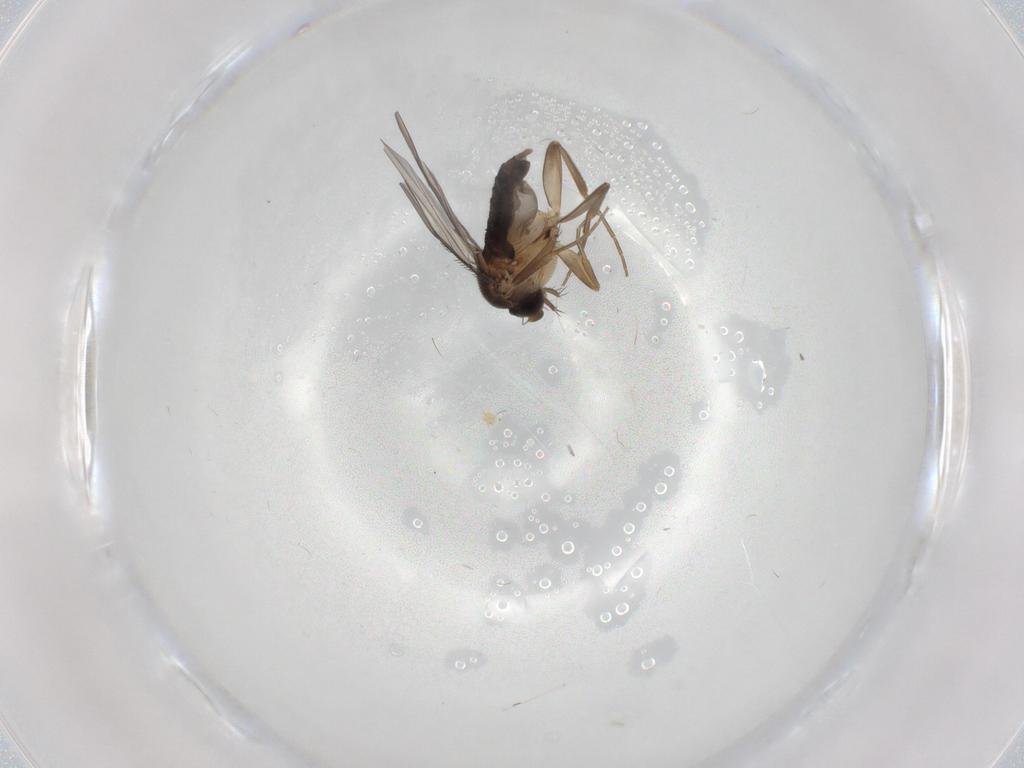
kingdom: Animalia
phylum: Arthropoda
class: Insecta
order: Diptera
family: Phoridae
